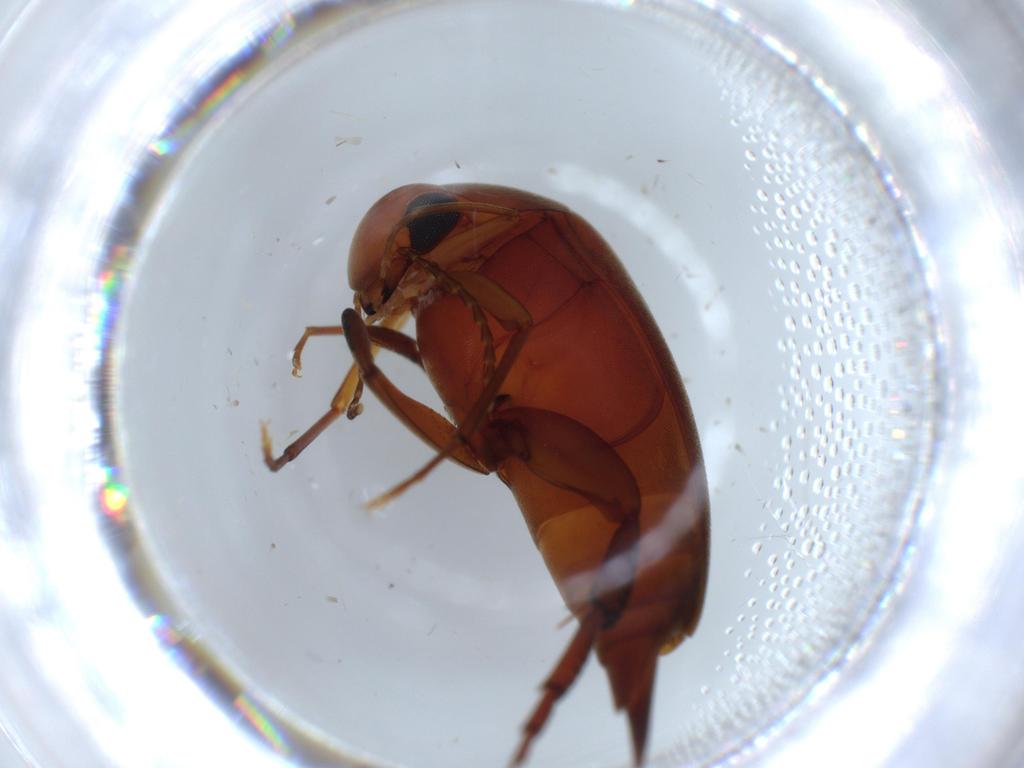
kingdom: Animalia
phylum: Arthropoda
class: Insecta
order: Coleoptera
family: Mordellidae
